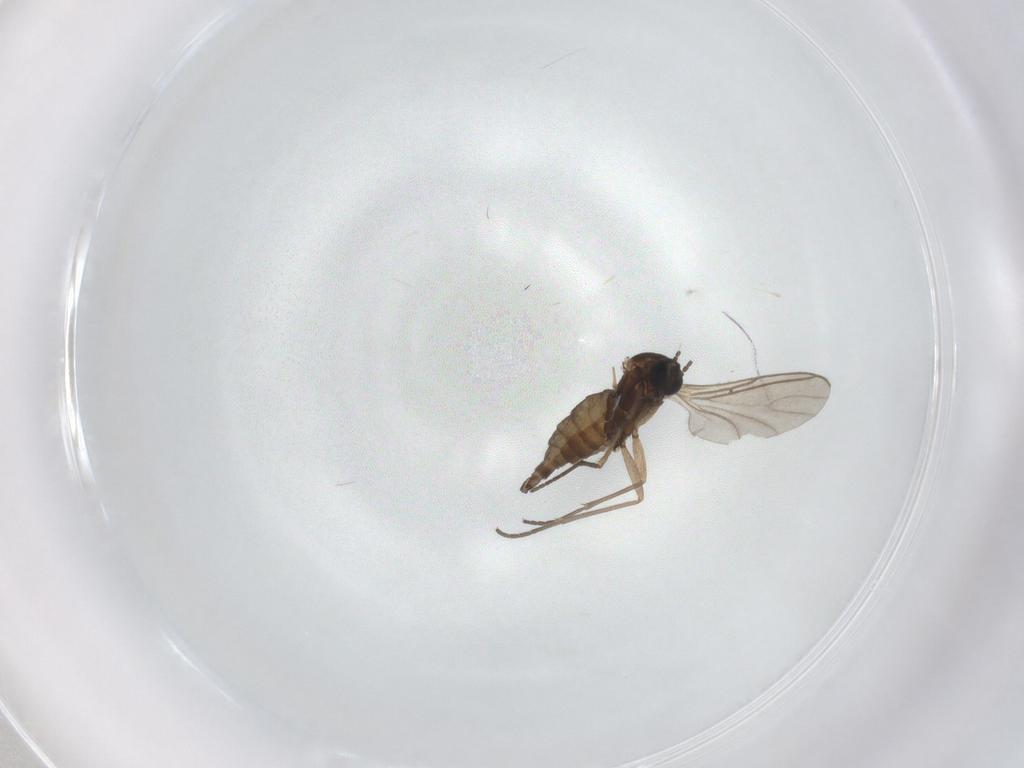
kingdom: Animalia
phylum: Arthropoda
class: Insecta
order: Diptera
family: Sciaridae
